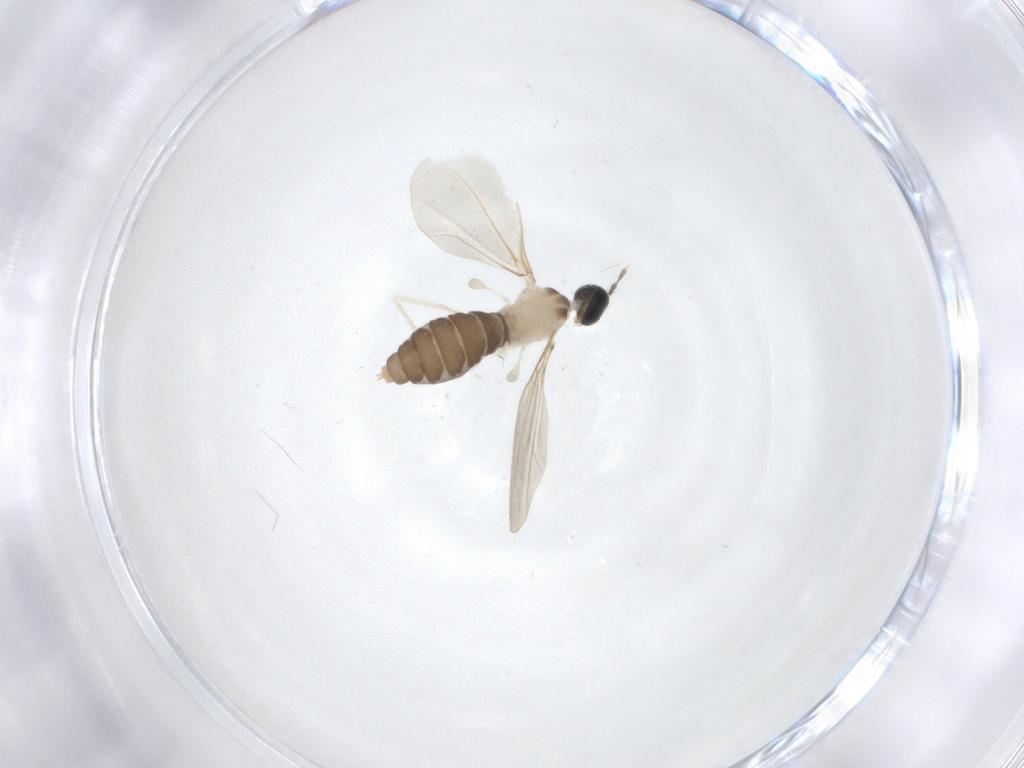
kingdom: Animalia
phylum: Arthropoda
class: Insecta
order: Diptera
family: Cecidomyiidae
